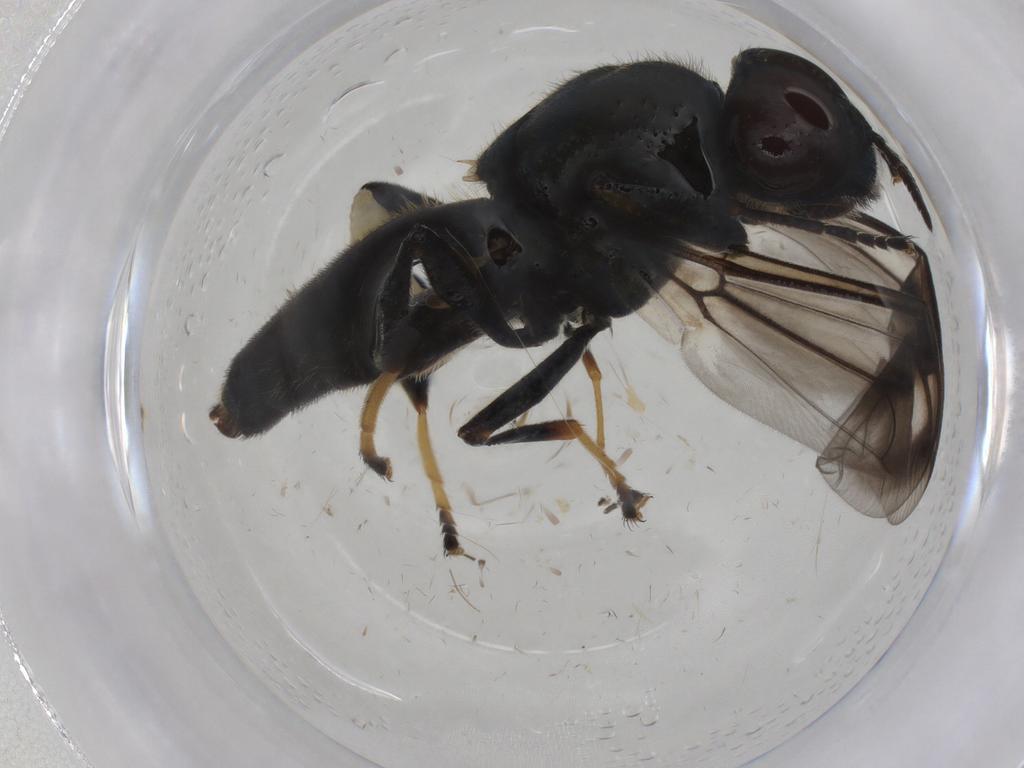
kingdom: Animalia
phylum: Arthropoda
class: Insecta
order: Diptera
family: Stratiomyidae
